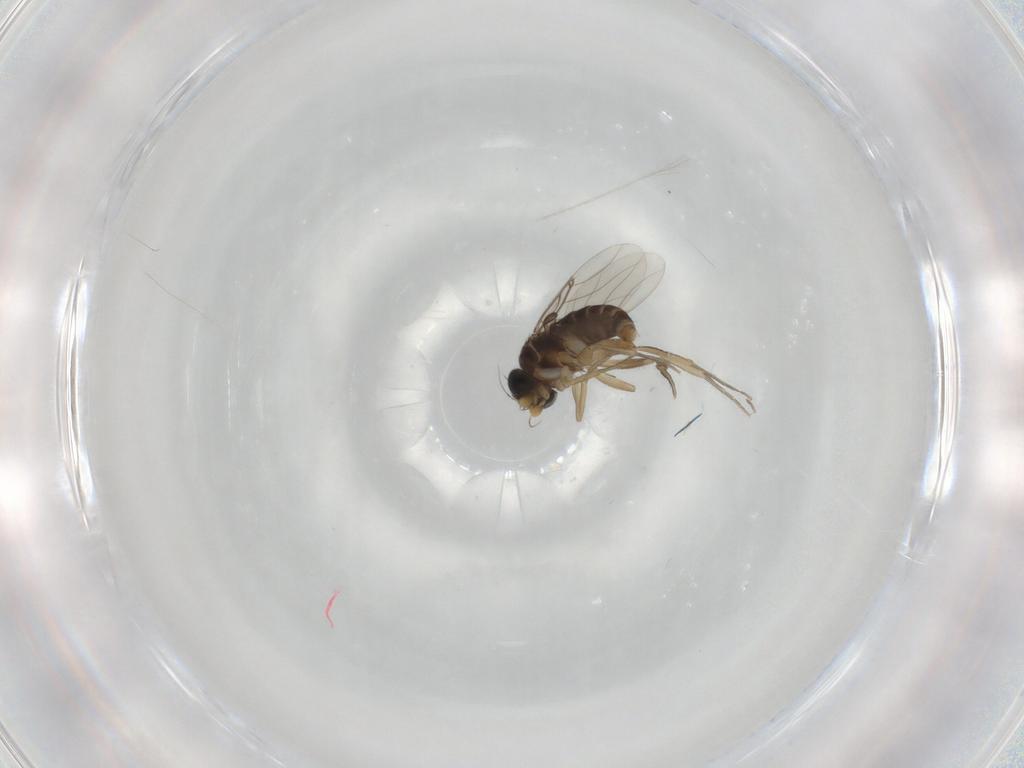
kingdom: Animalia
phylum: Arthropoda
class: Insecta
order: Diptera
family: Phoridae
